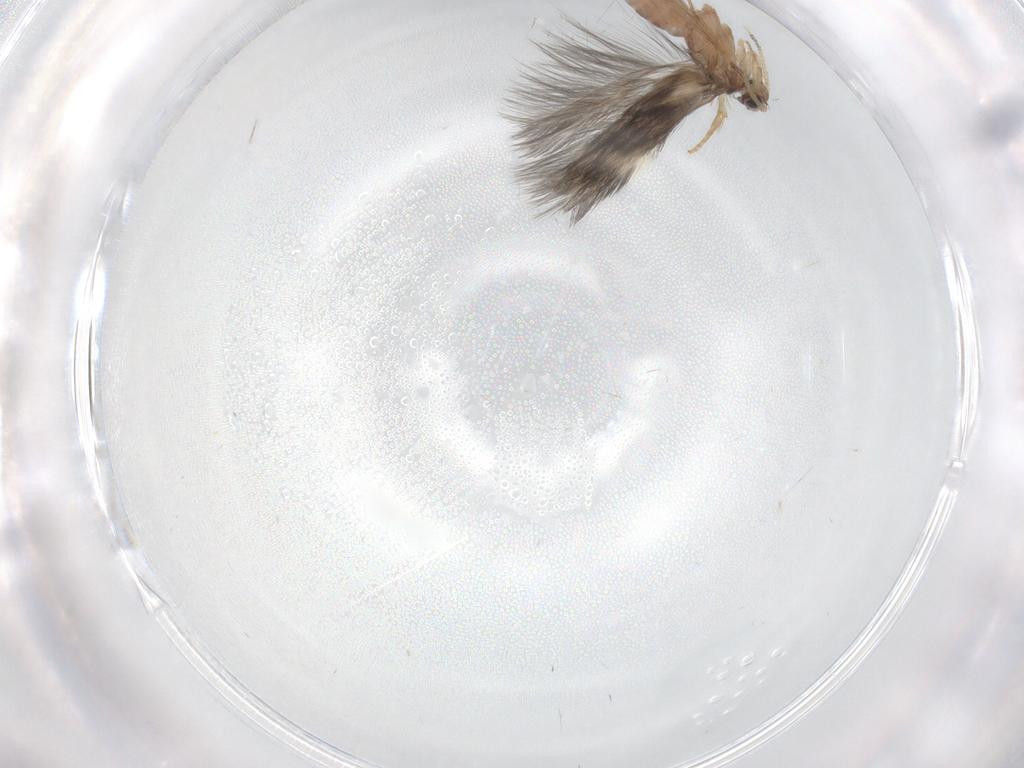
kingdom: Animalia
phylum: Arthropoda
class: Insecta
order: Trichoptera
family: Hydroptilidae
